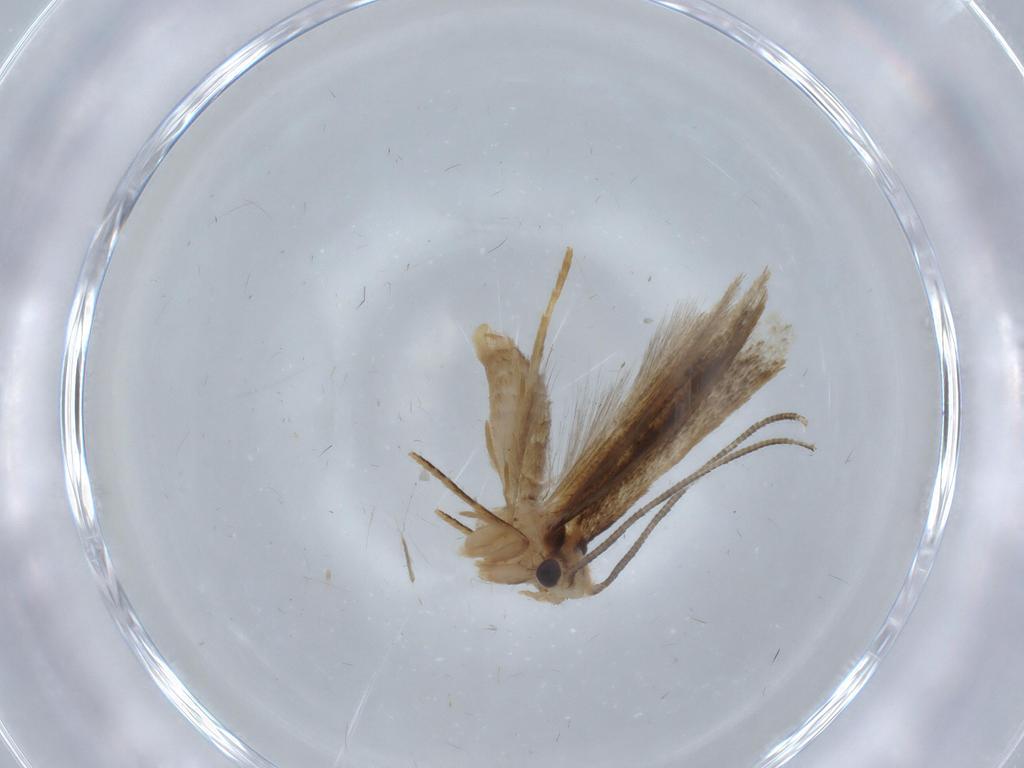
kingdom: Animalia
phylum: Arthropoda
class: Insecta
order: Lepidoptera
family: Tineidae
